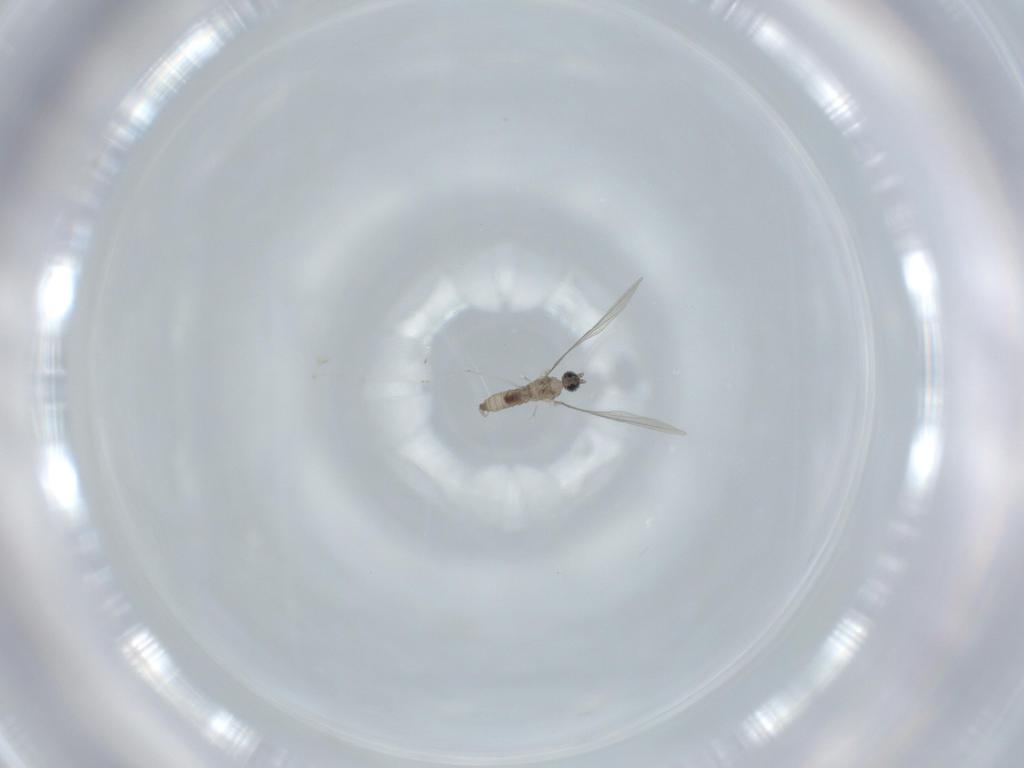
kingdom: Animalia
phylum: Arthropoda
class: Insecta
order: Diptera
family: Cecidomyiidae
